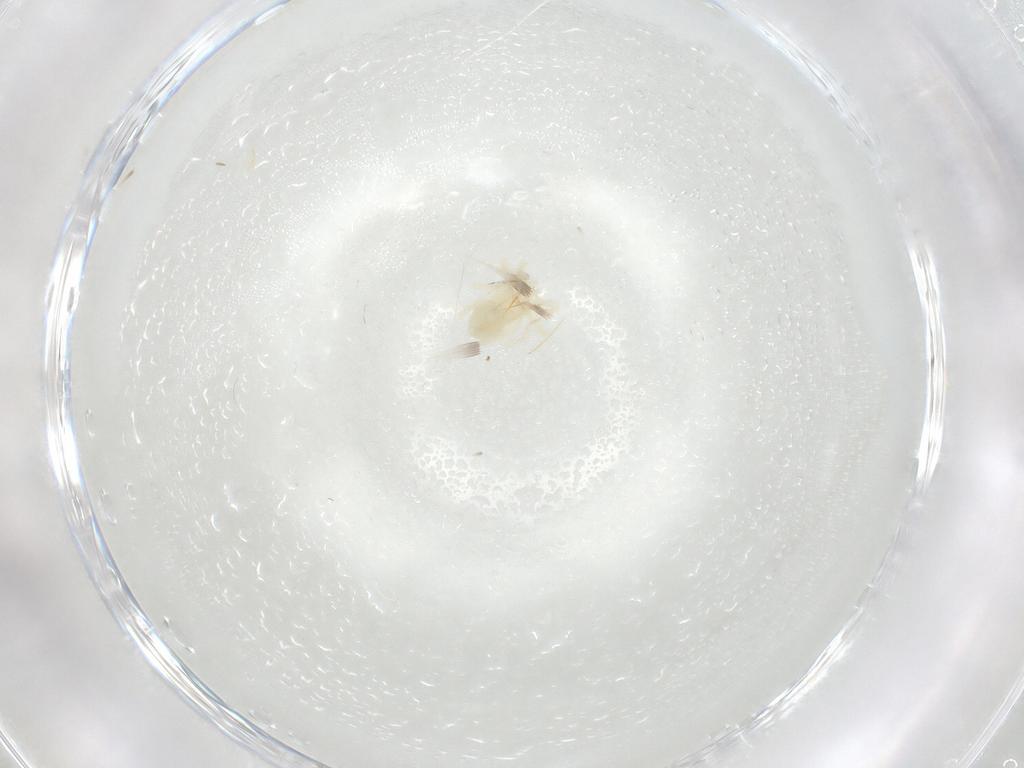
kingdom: Animalia
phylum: Arthropoda
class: Arachnida
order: Trombidiformes
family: Anystidae
